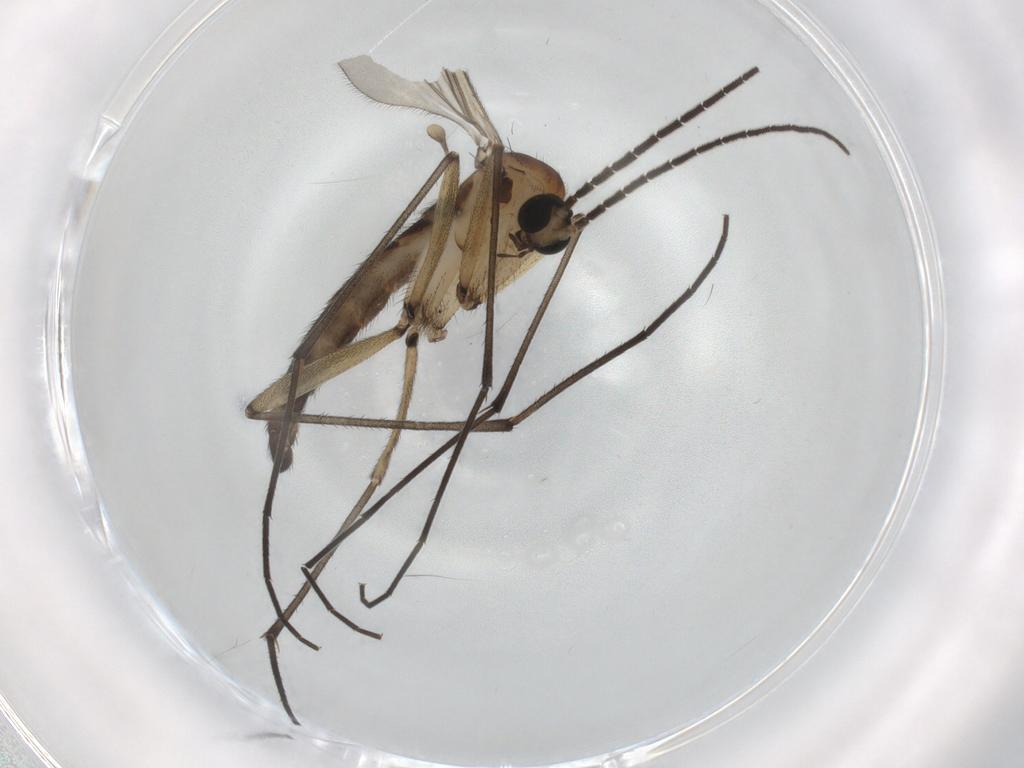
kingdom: Animalia
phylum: Arthropoda
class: Insecta
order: Diptera
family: Sciaridae
